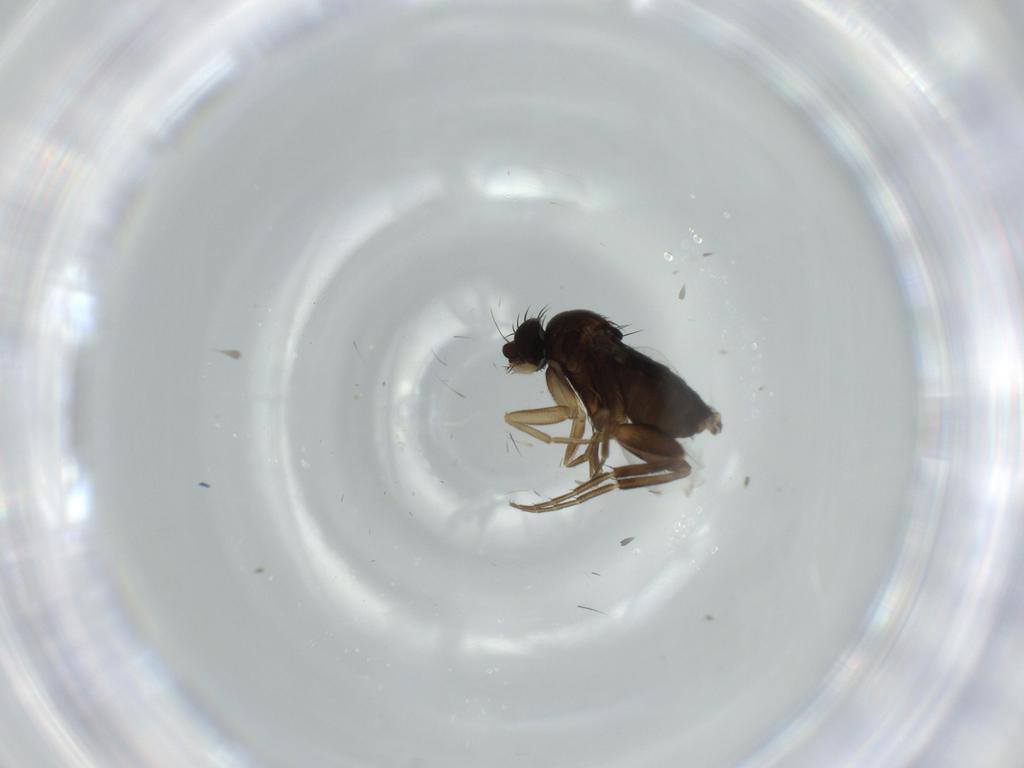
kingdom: Animalia
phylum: Arthropoda
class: Insecta
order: Diptera
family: Phoridae
